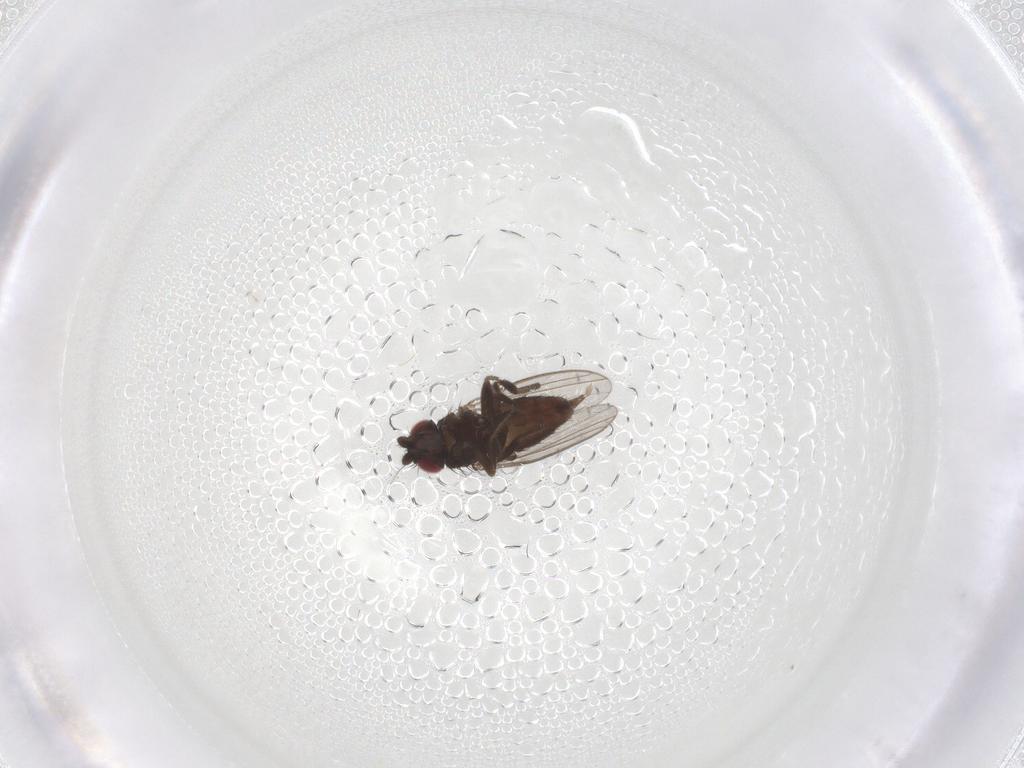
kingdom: Animalia
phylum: Arthropoda
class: Insecta
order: Diptera
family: Milichiidae
